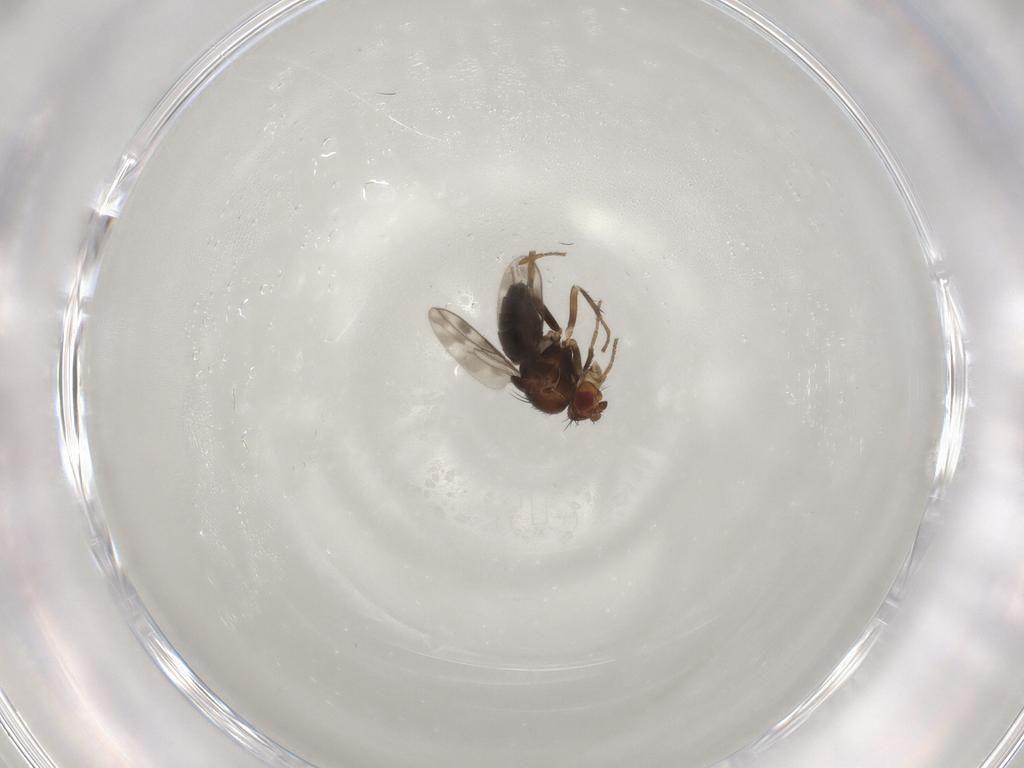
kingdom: Animalia
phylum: Arthropoda
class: Insecta
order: Diptera
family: Sphaeroceridae
